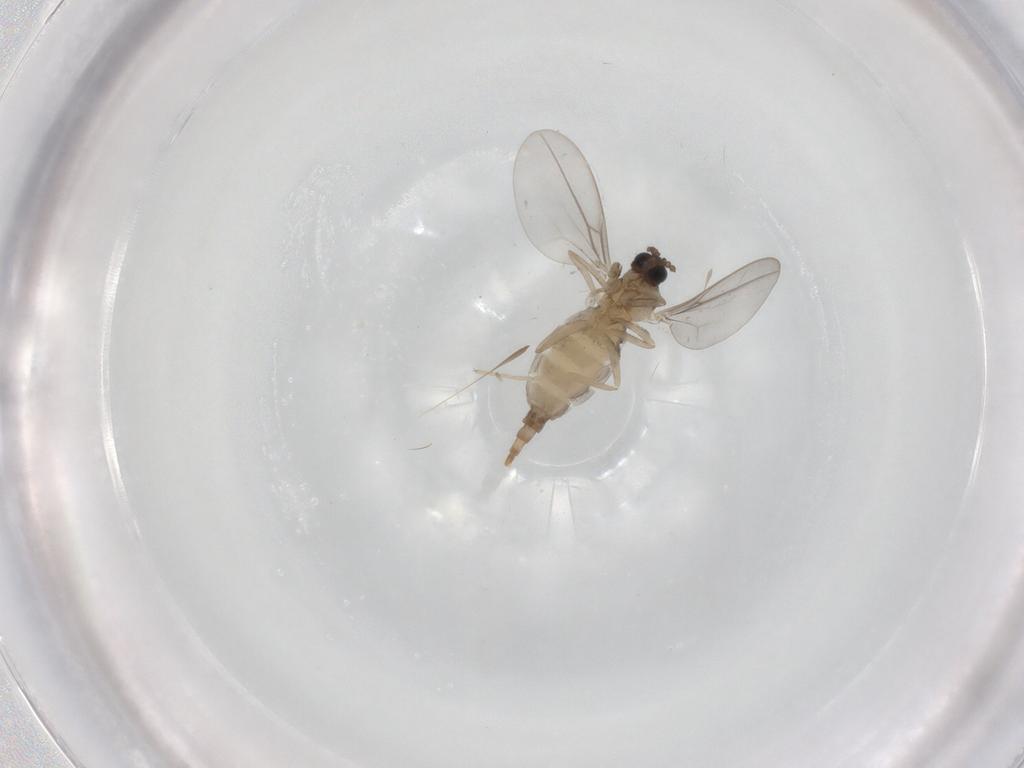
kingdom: Animalia
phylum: Arthropoda
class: Insecta
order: Diptera
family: Cecidomyiidae
